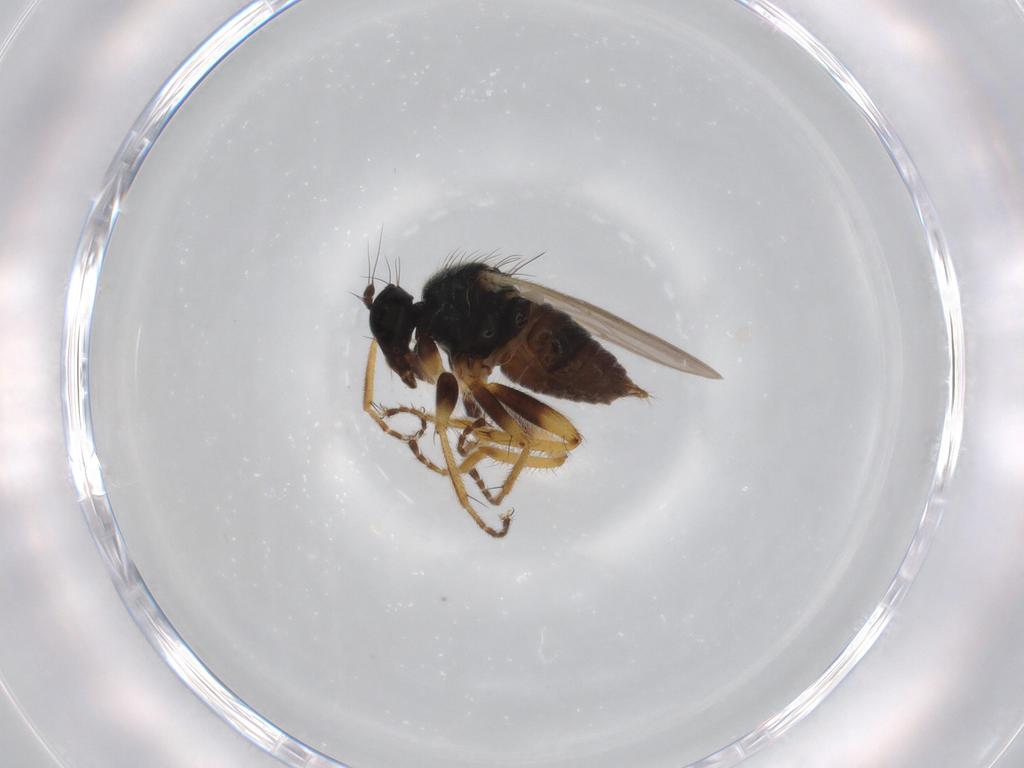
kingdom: Animalia
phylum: Arthropoda
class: Insecta
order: Diptera
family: Hybotidae
